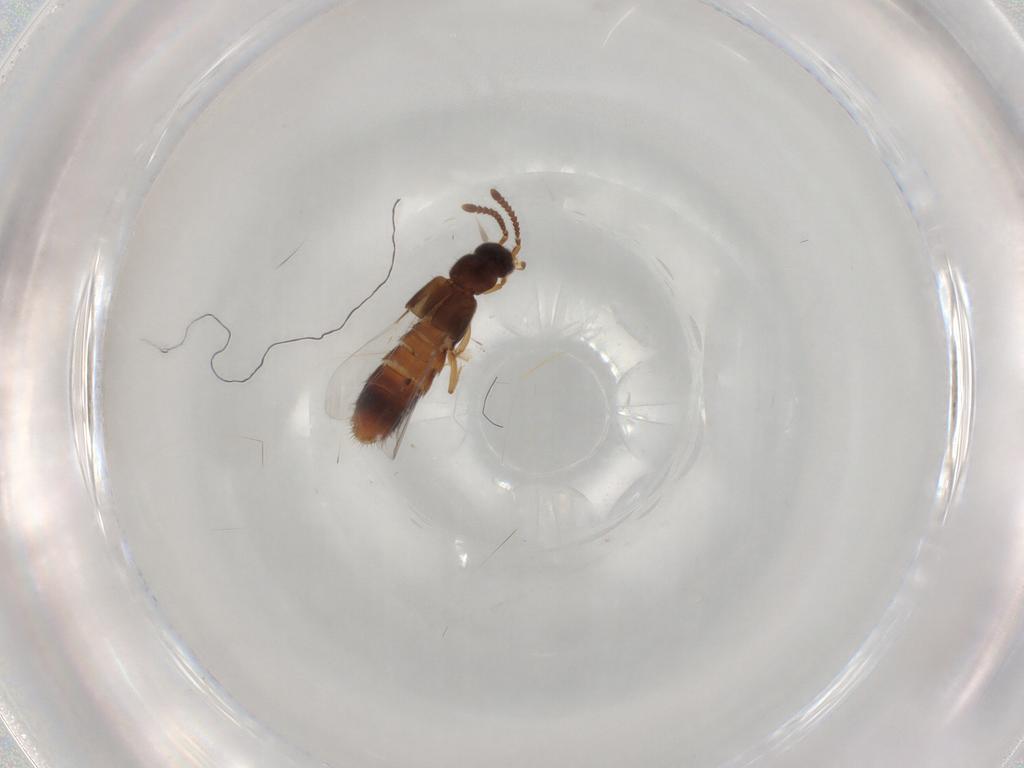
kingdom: Animalia
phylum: Arthropoda
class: Insecta
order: Coleoptera
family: Staphylinidae
